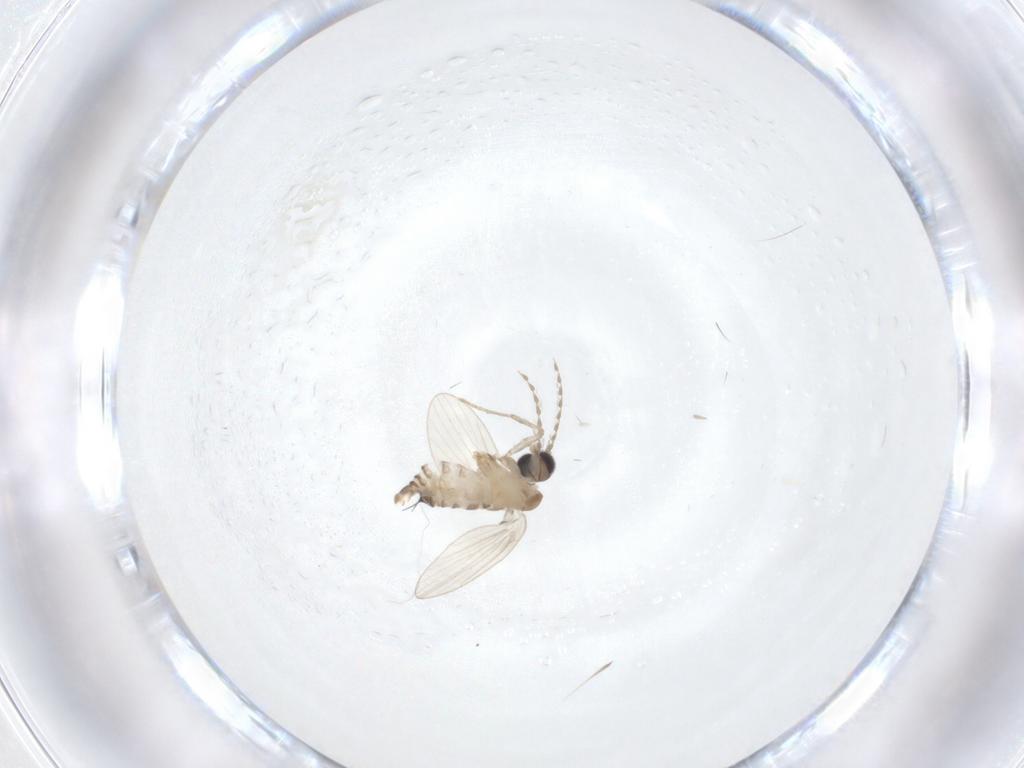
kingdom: Animalia
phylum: Arthropoda
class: Insecta
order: Diptera
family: Psychodidae
